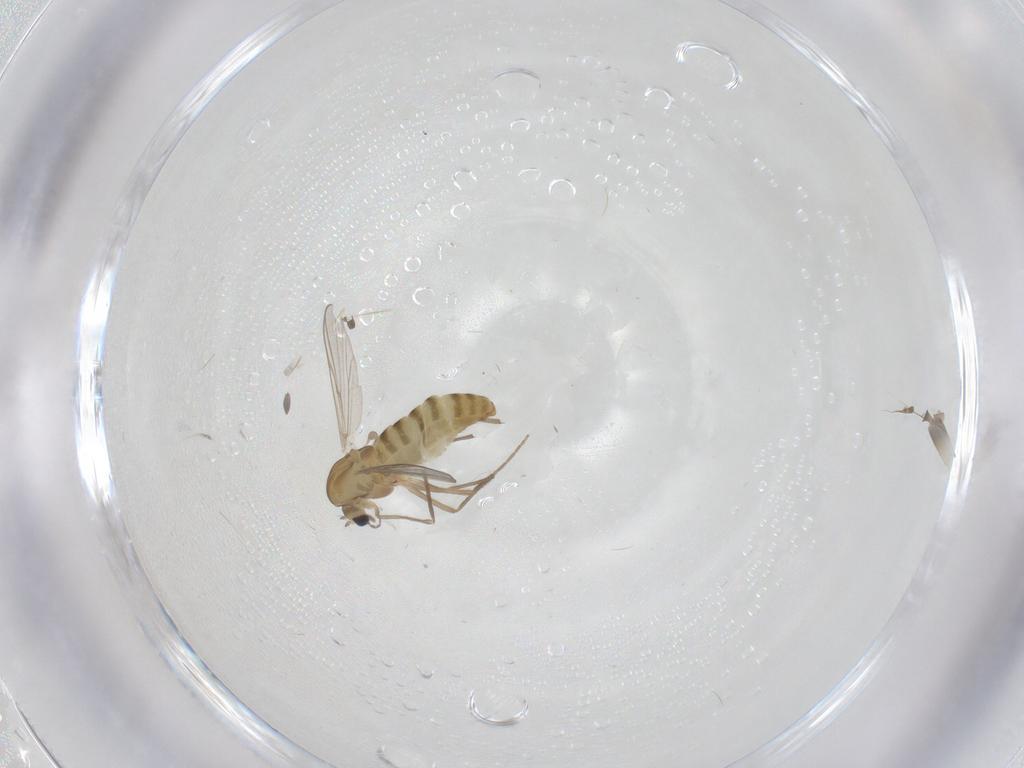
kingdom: Animalia
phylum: Arthropoda
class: Insecta
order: Diptera
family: Chironomidae
